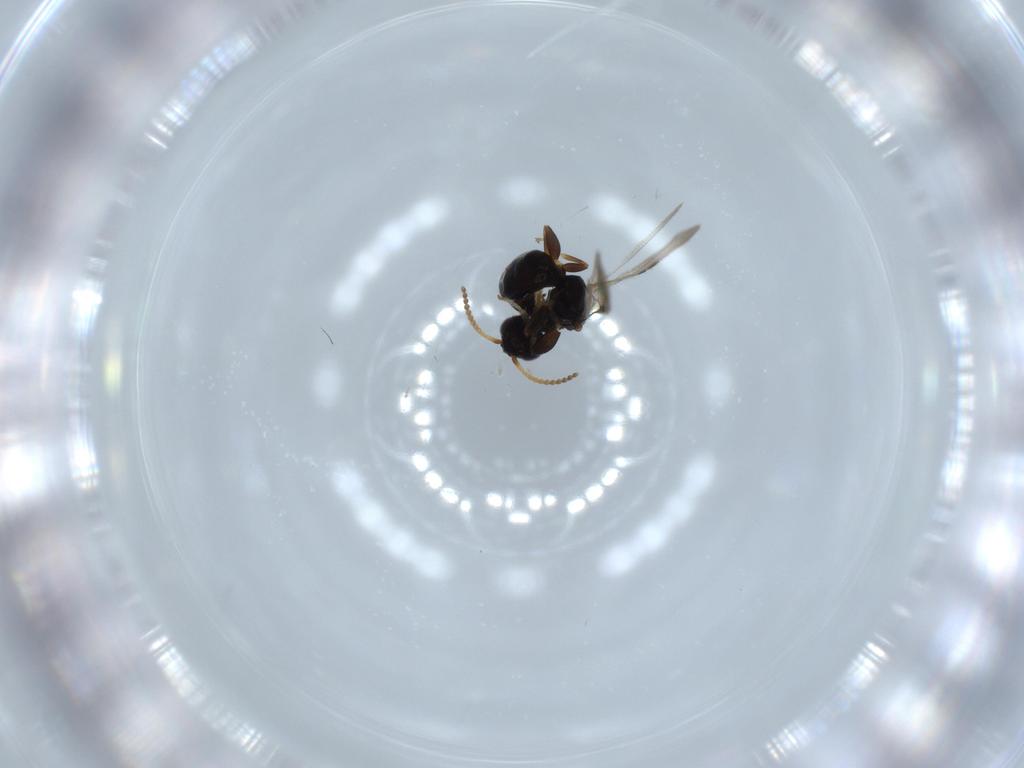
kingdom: Animalia
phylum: Arthropoda
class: Insecta
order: Hymenoptera
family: Bethylidae
